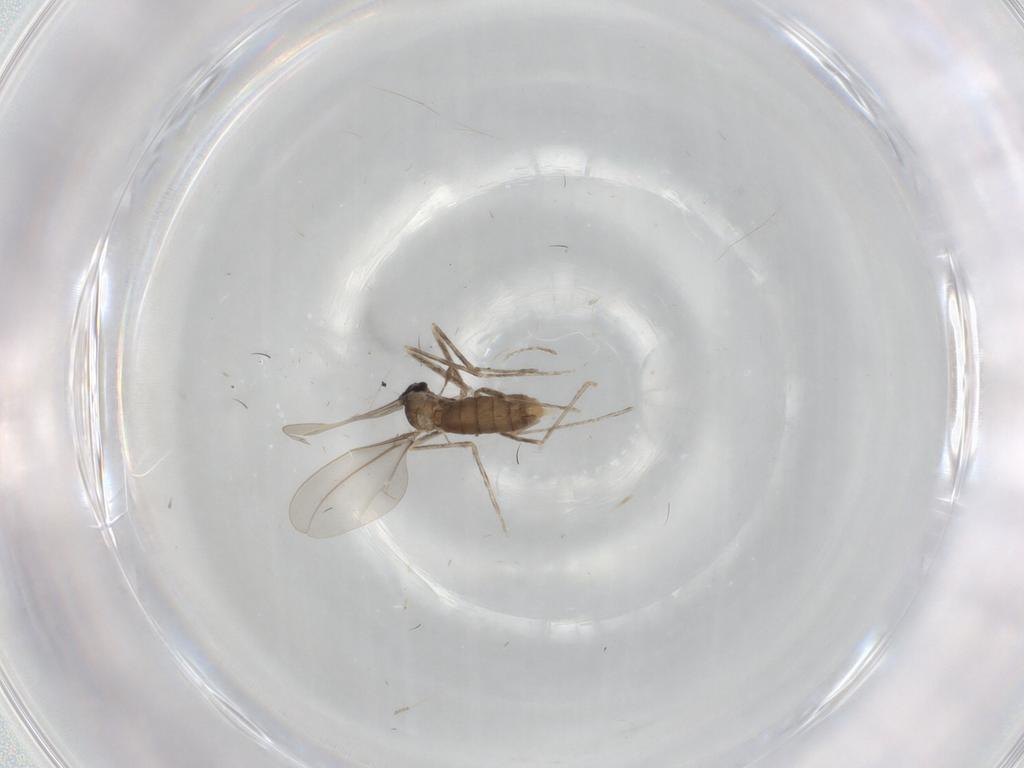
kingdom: Animalia
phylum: Arthropoda
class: Insecta
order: Diptera
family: Cecidomyiidae
